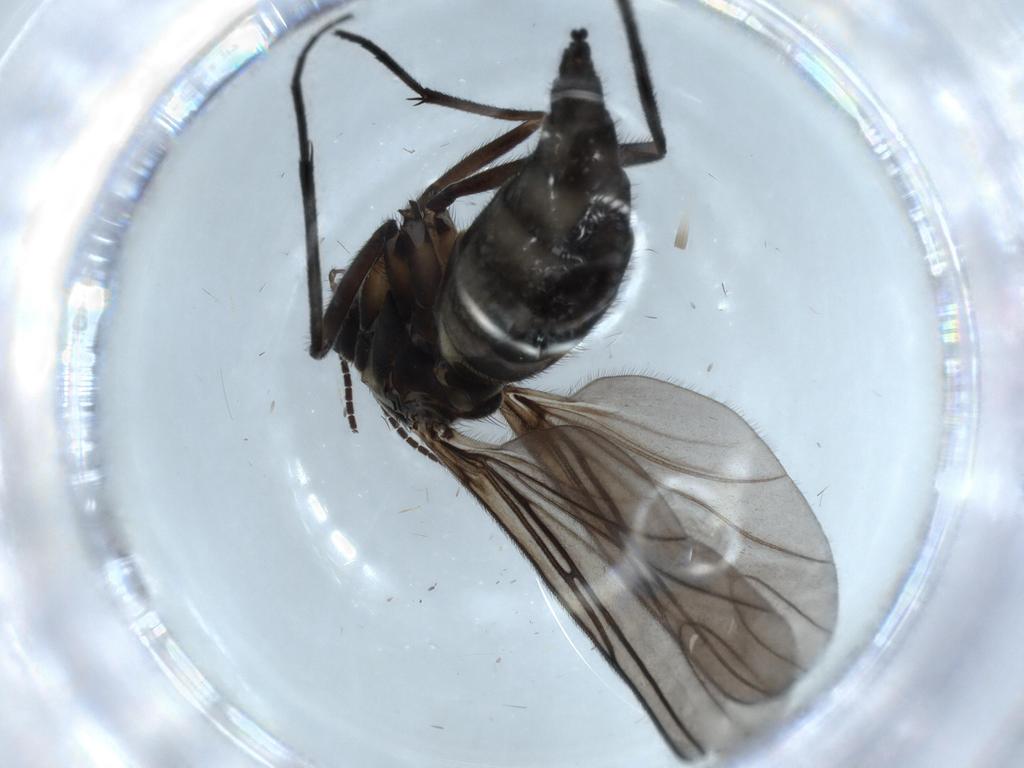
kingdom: Animalia
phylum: Arthropoda
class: Insecta
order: Diptera
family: Sciaridae
